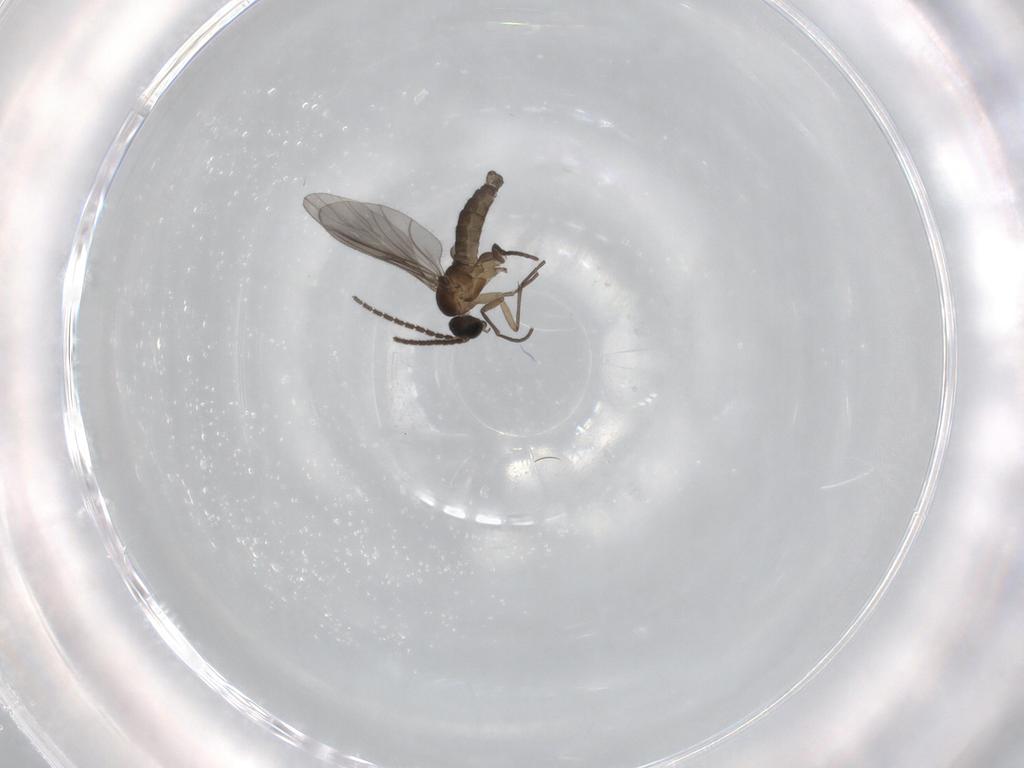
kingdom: Animalia
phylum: Arthropoda
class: Insecta
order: Diptera
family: Sciaridae
